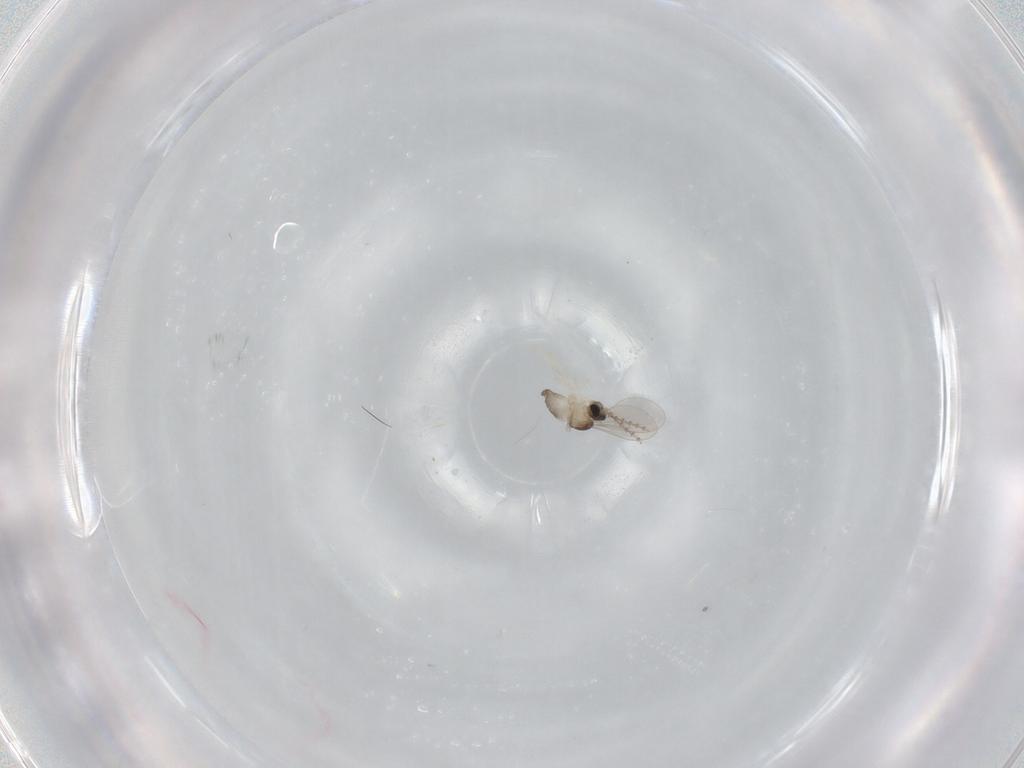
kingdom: Animalia
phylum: Arthropoda
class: Insecta
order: Diptera
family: Cecidomyiidae
